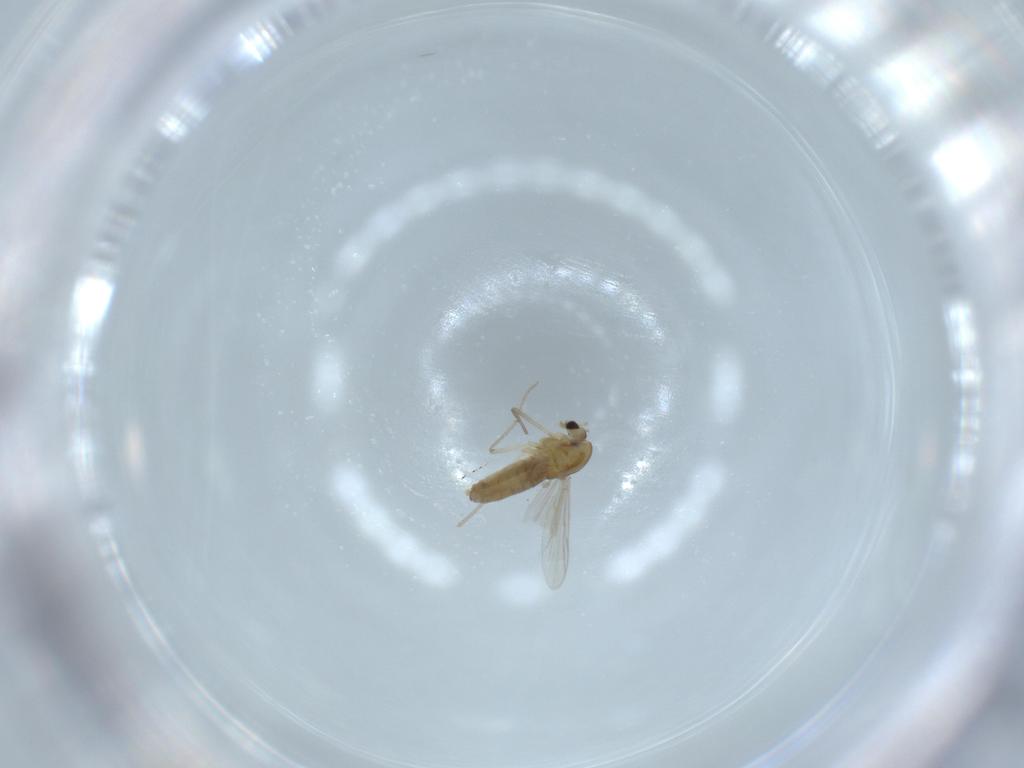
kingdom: Animalia
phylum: Arthropoda
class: Insecta
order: Diptera
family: Chironomidae
